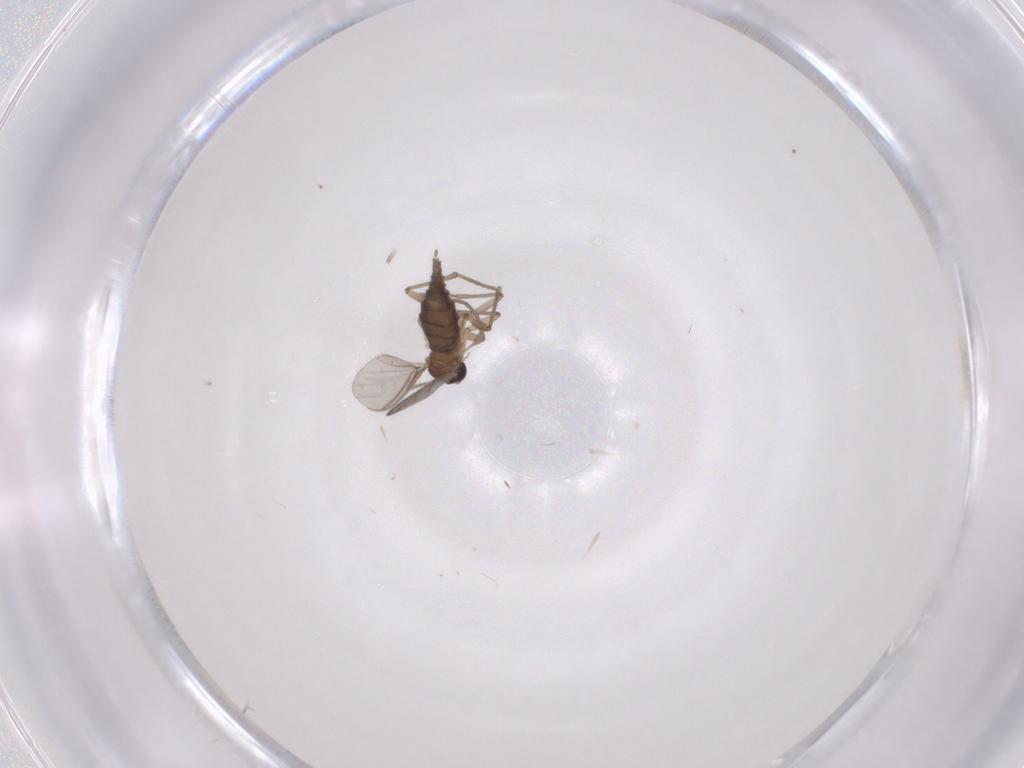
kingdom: Animalia
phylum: Arthropoda
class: Insecta
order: Diptera
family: Sciaridae
